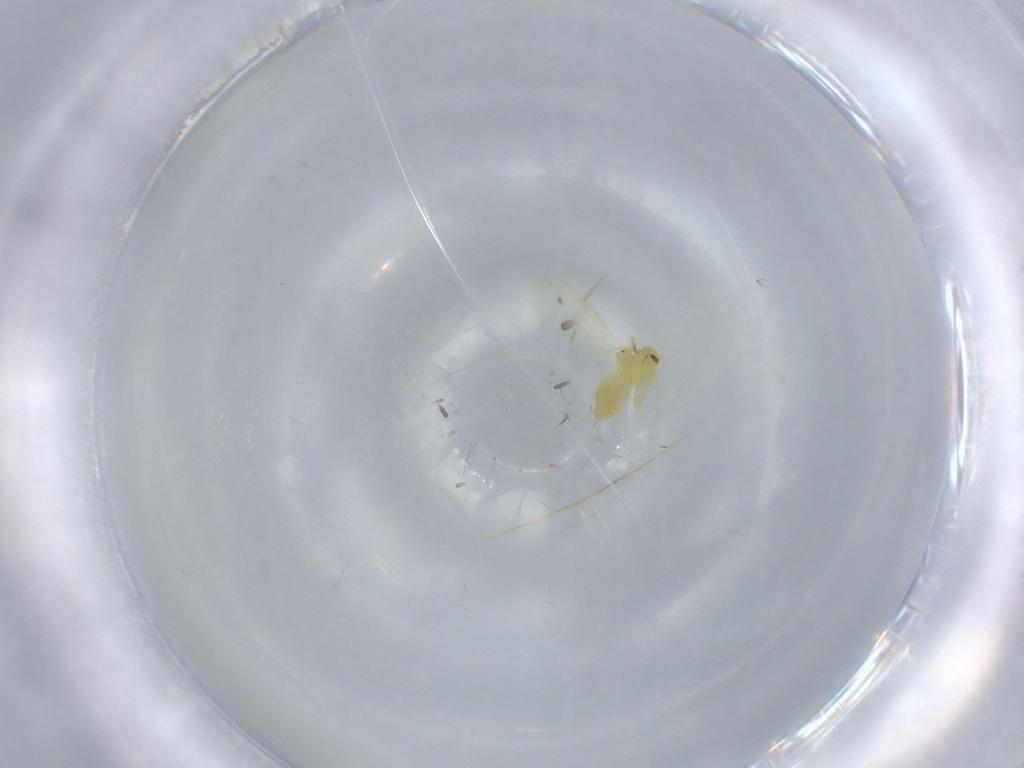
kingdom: Animalia
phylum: Arthropoda
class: Insecta
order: Hemiptera
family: Aleyrodidae
